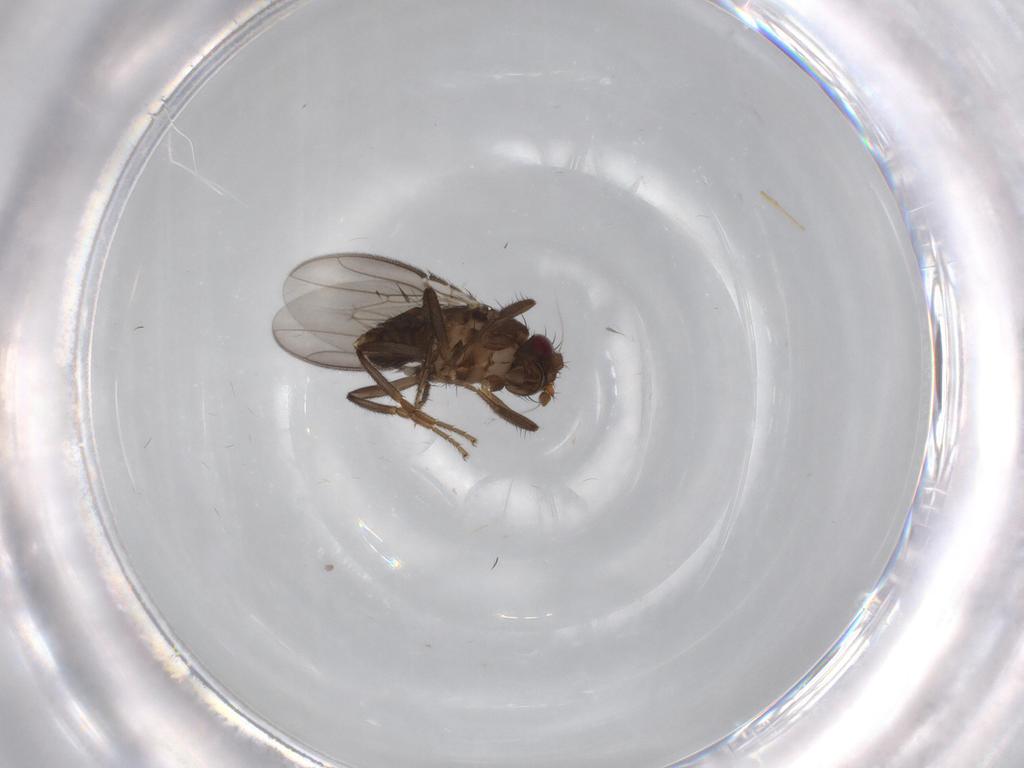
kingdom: Animalia
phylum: Arthropoda
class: Insecta
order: Diptera
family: Sphaeroceridae
